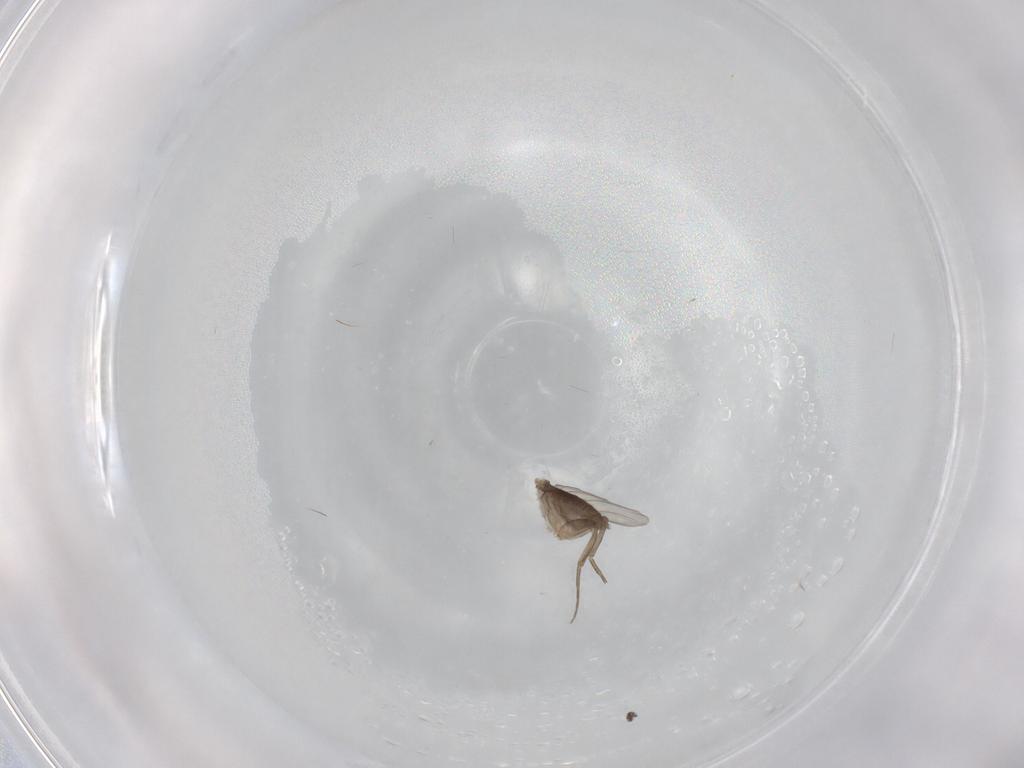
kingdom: Animalia
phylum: Arthropoda
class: Insecta
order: Diptera
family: Phoridae
